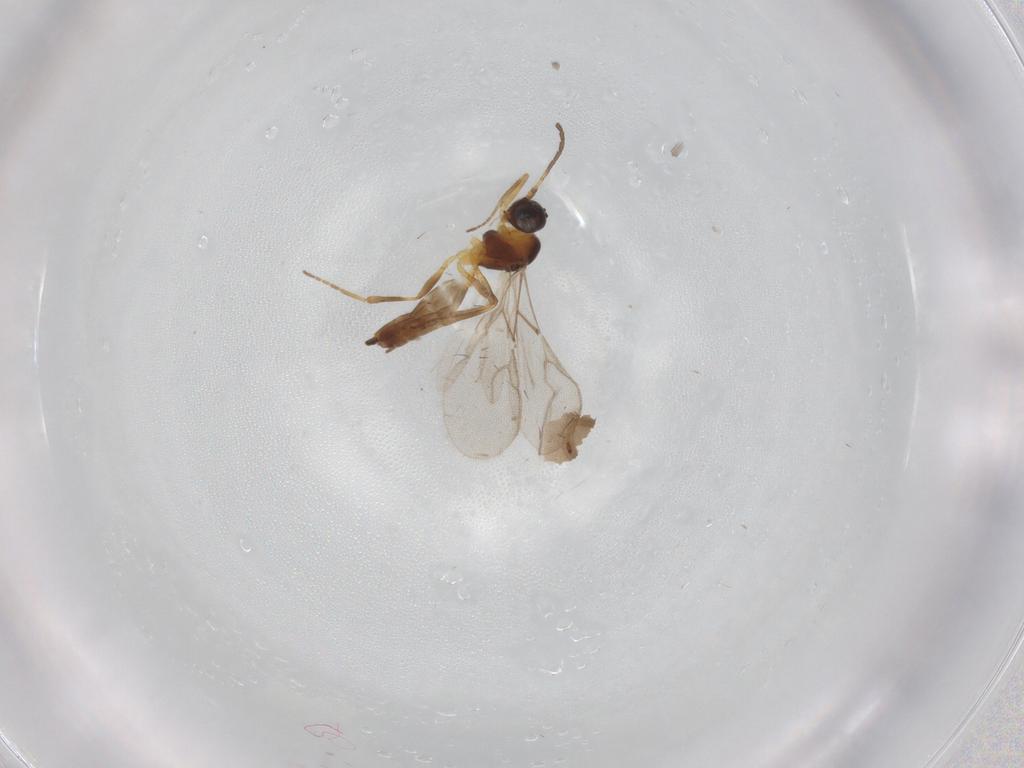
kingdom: Animalia
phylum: Arthropoda
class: Insecta
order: Hymenoptera
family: Braconidae
